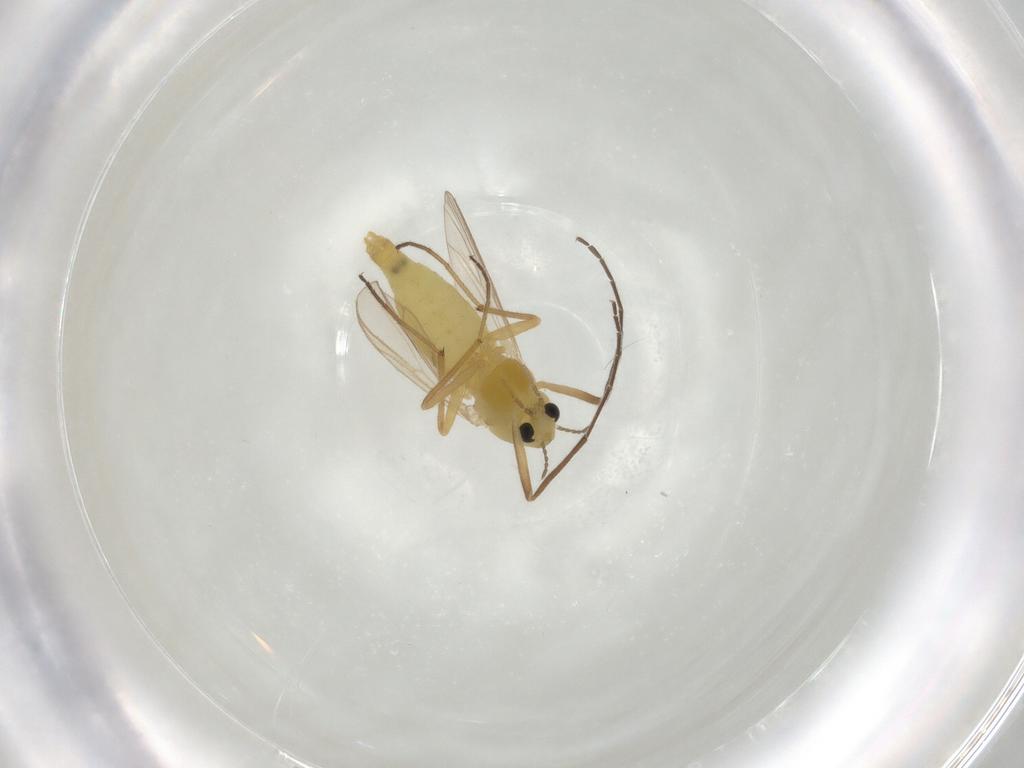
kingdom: Animalia
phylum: Arthropoda
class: Insecta
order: Diptera
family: Chironomidae
